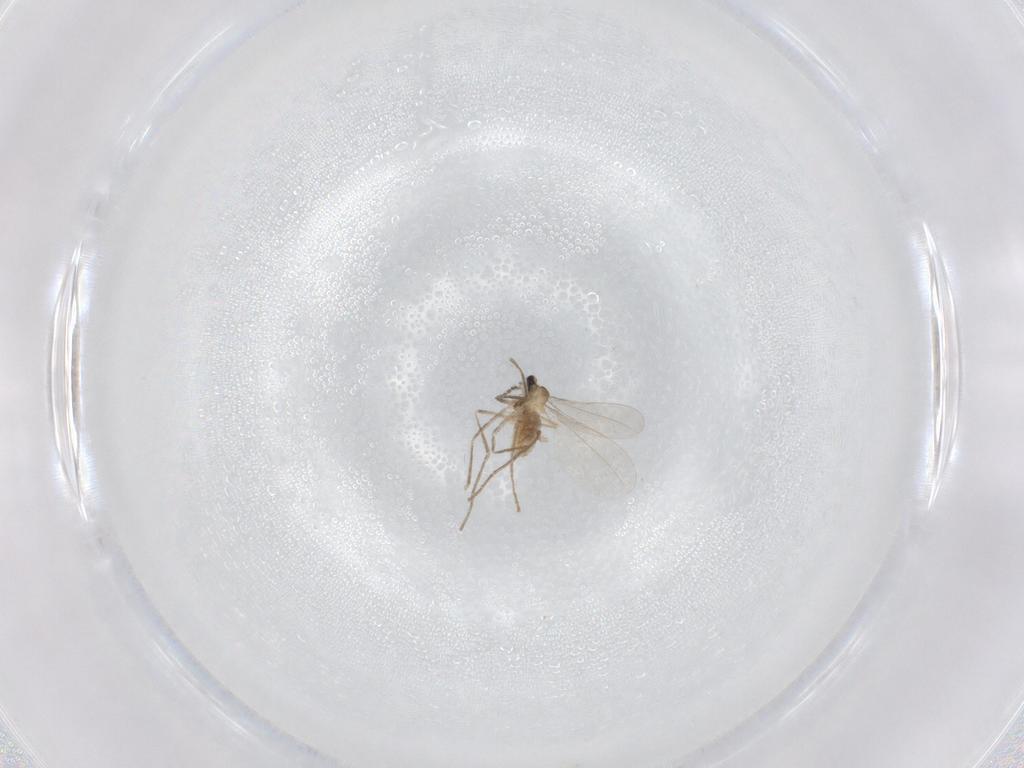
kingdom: Animalia
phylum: Arthropoda
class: Insecta
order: Diptera
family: Cecidomyiidae
